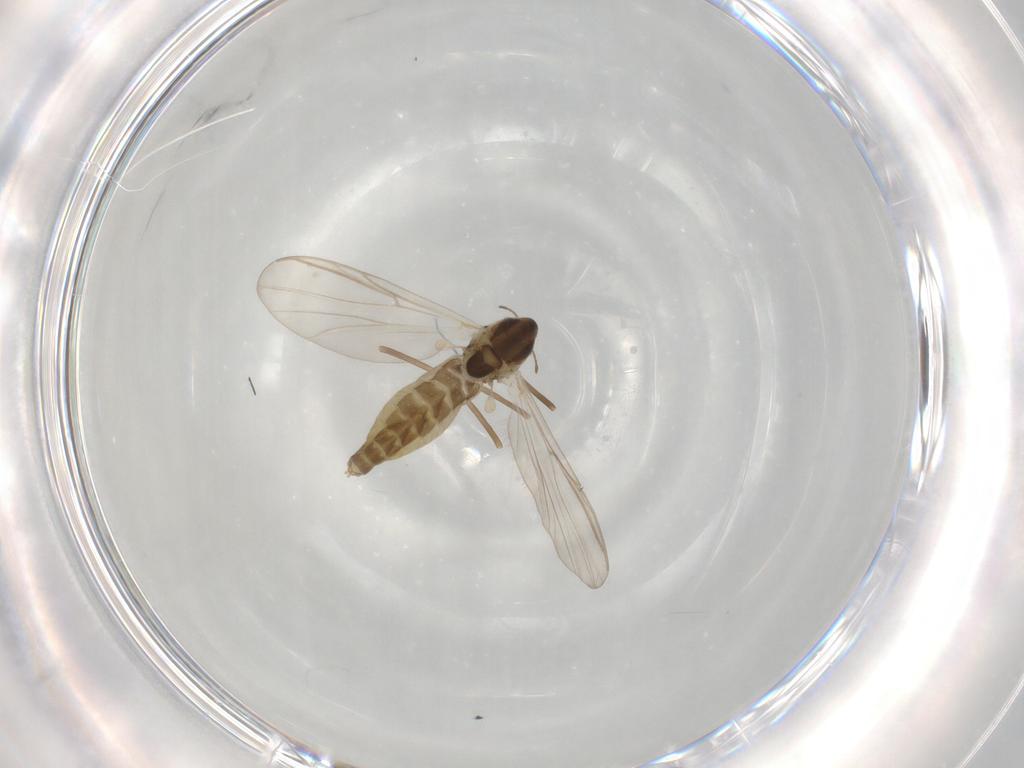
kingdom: Animalia
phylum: Arthropoda
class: Insecta
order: Diptera
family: Chironomidae
